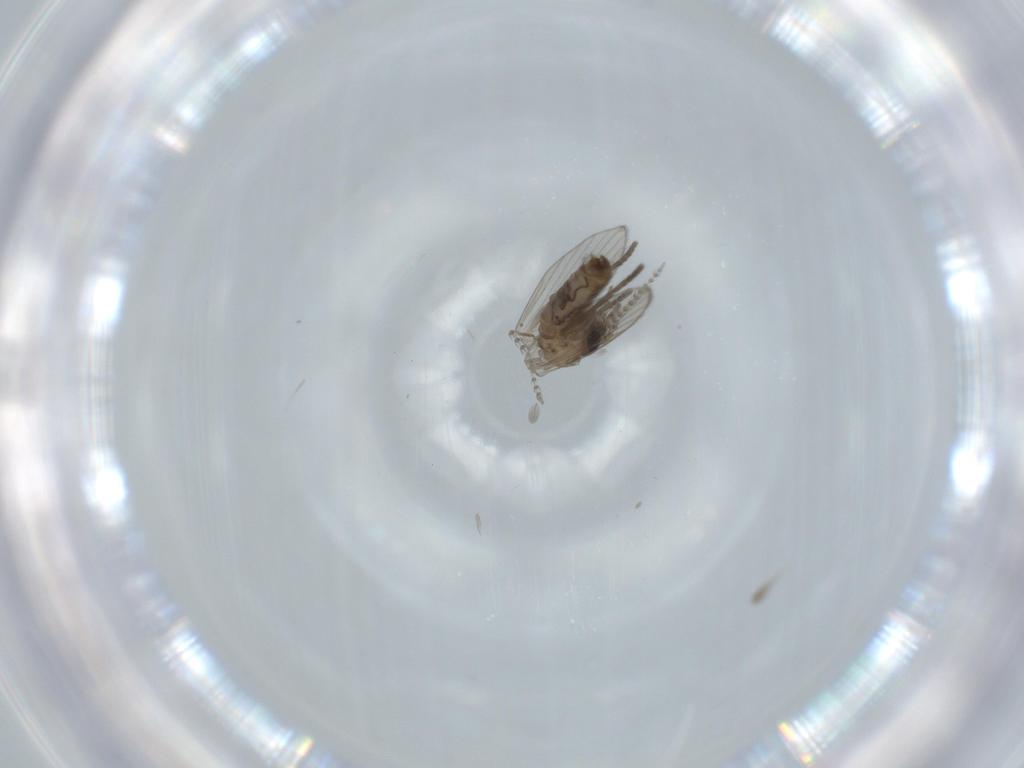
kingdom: Animalia
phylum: Arthropoda
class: Insecta
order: Diptera
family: Psychodidae
